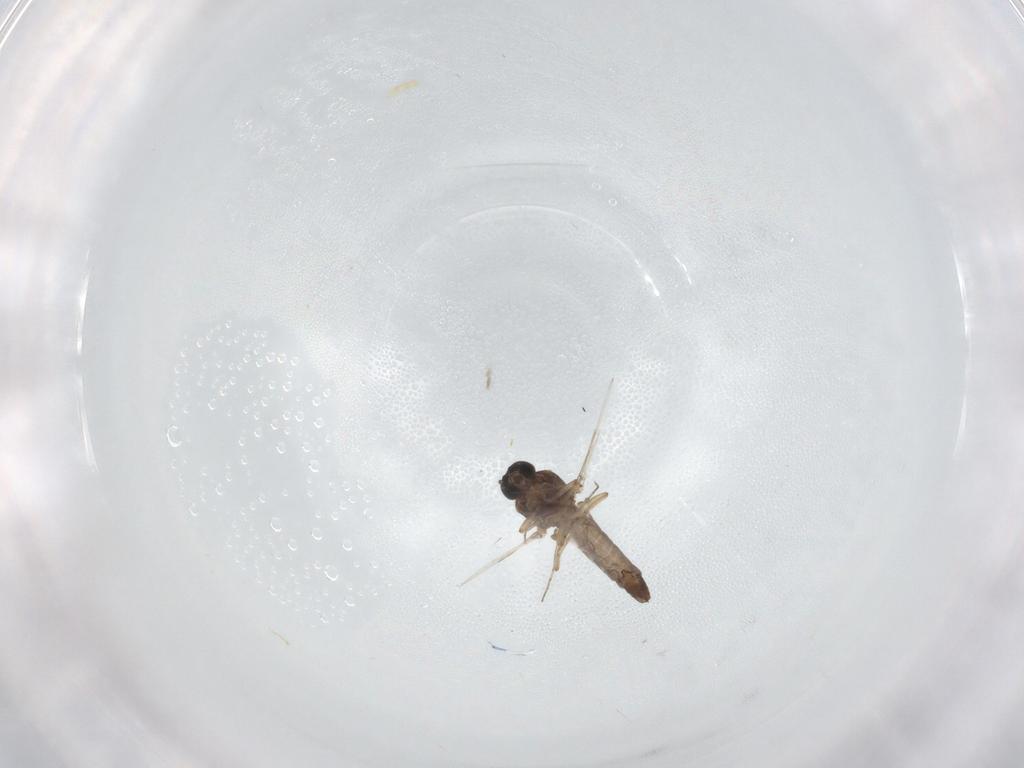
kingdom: Animalia
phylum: Arthropoda
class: Insecta
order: Diptera
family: Ceratopogonidae
